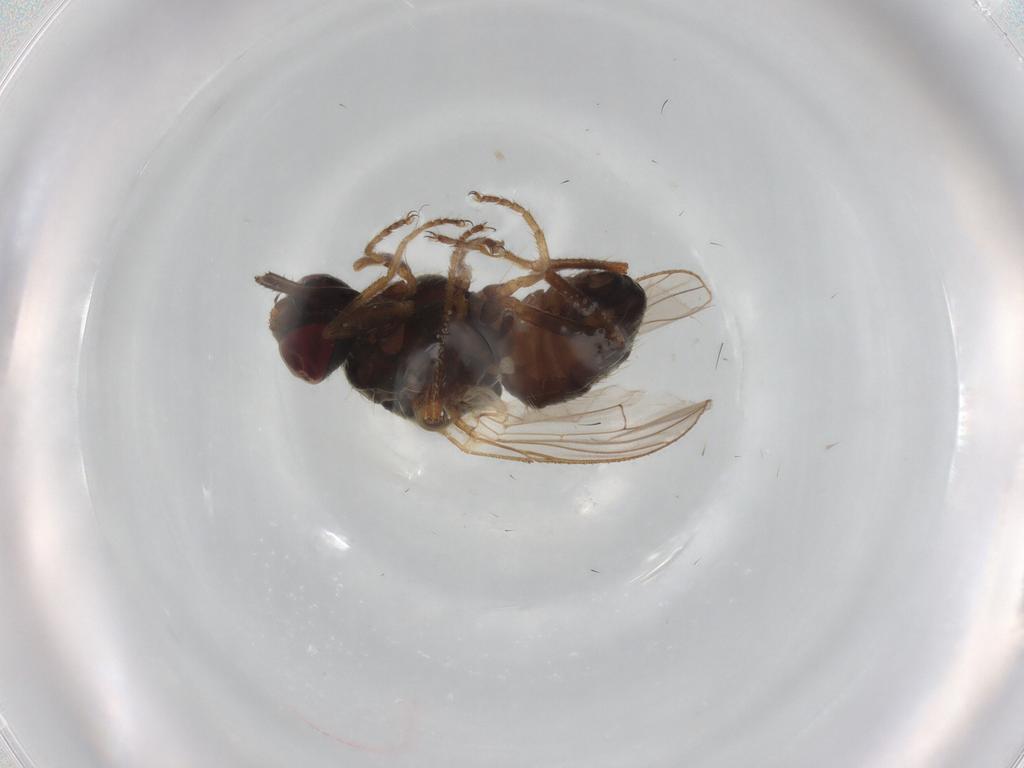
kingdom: Animalia
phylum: Arthropoda
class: Insecta
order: Diptera
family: Muscidae
